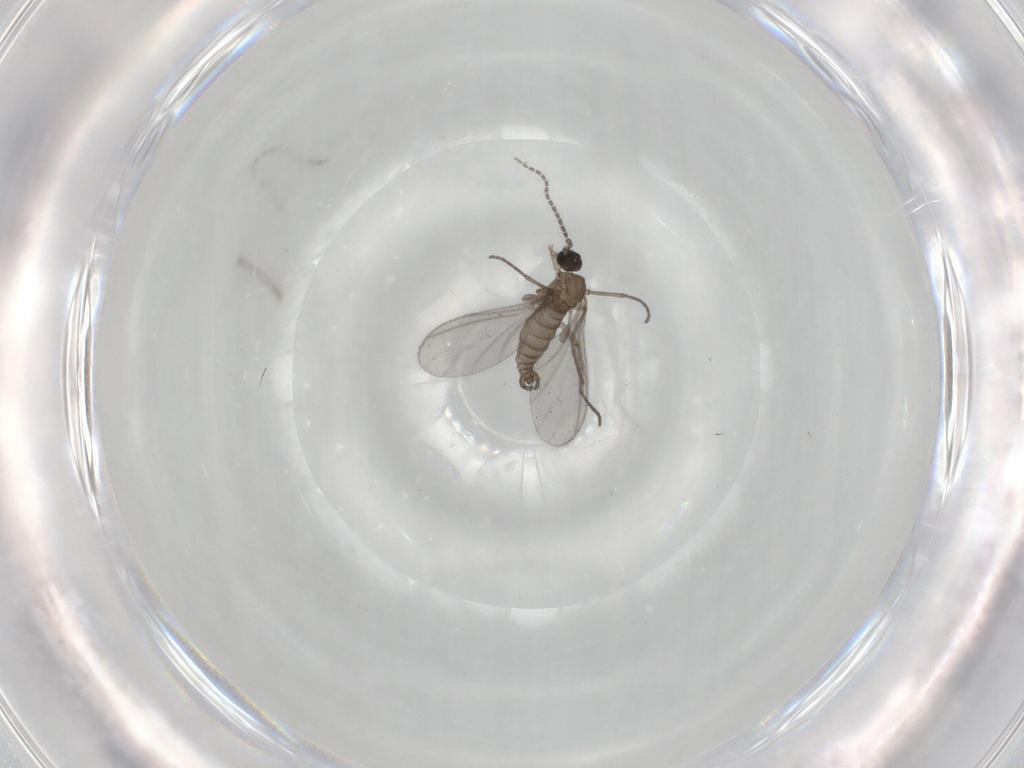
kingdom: Animalia
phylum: Arthropoda
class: Insecta
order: Diptera
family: Sciaridae
